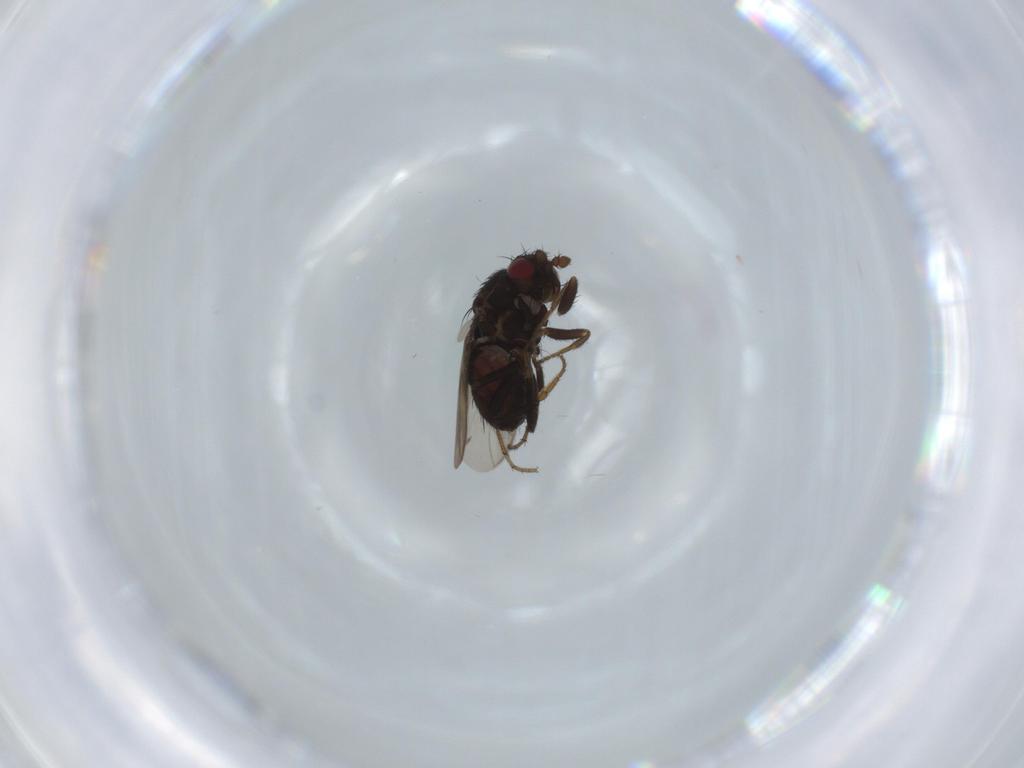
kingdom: Animalia
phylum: Arthropoda
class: Insecta
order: Diptera
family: Sphaeroceridae
